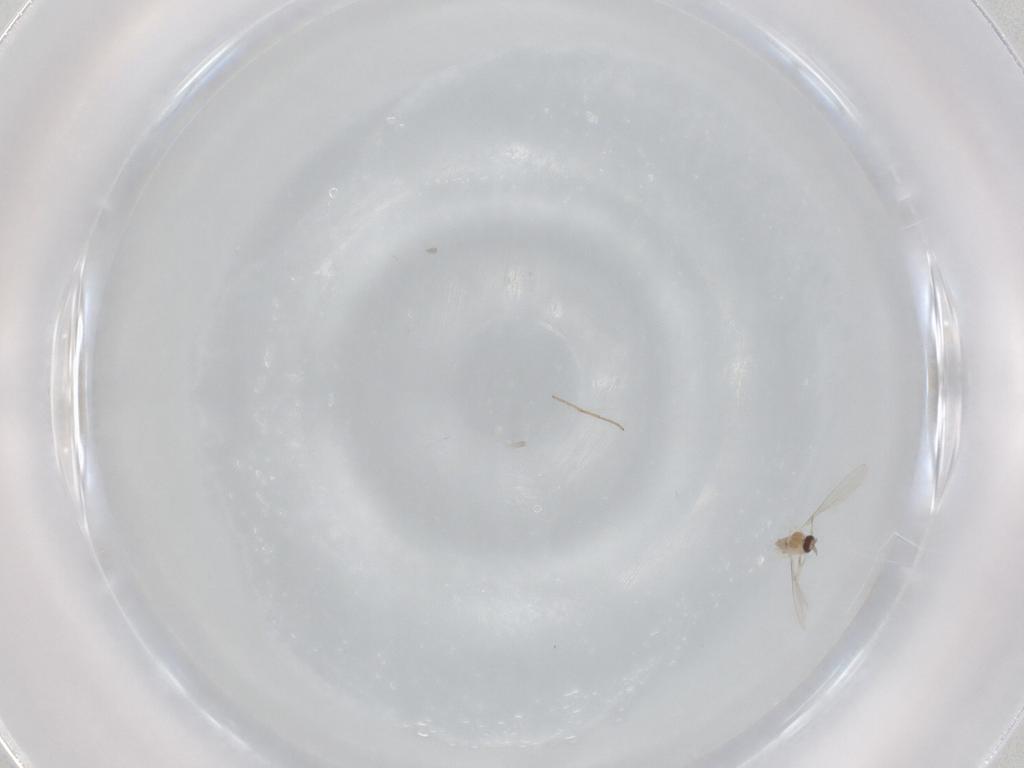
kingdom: Animalia
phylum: Arthropoda
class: Insecta
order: Diptera
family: Cecidomyiidae
